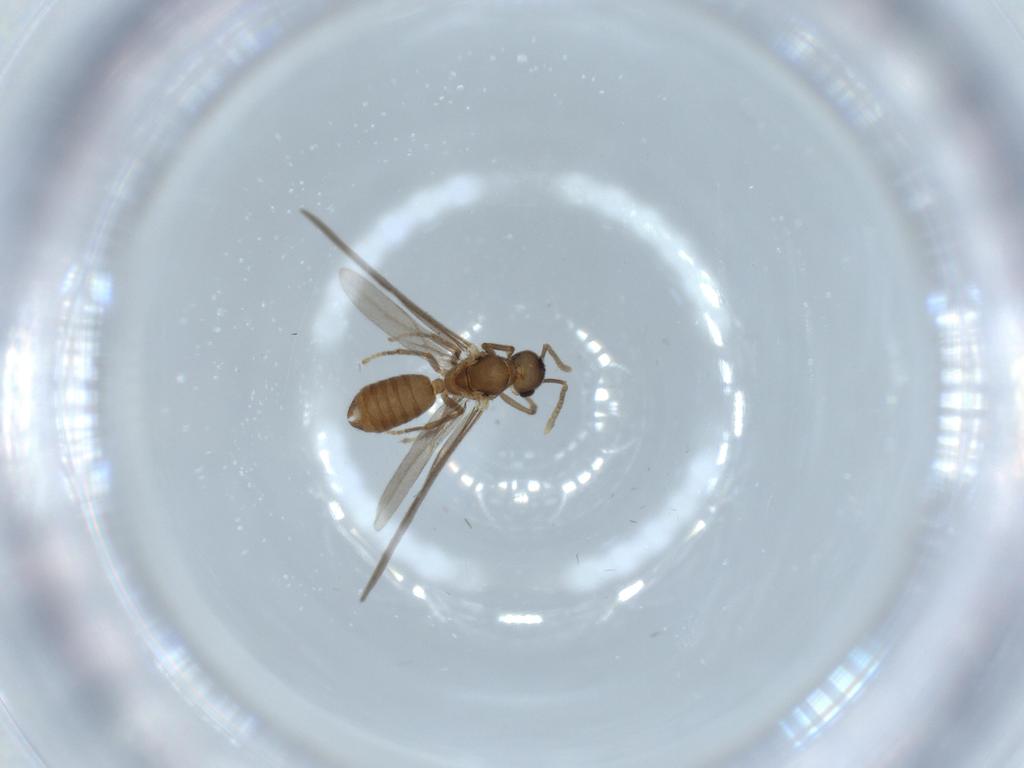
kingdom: Animalia
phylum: Arthropoda
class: Insecta
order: Hymenoptera
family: Formicidae
